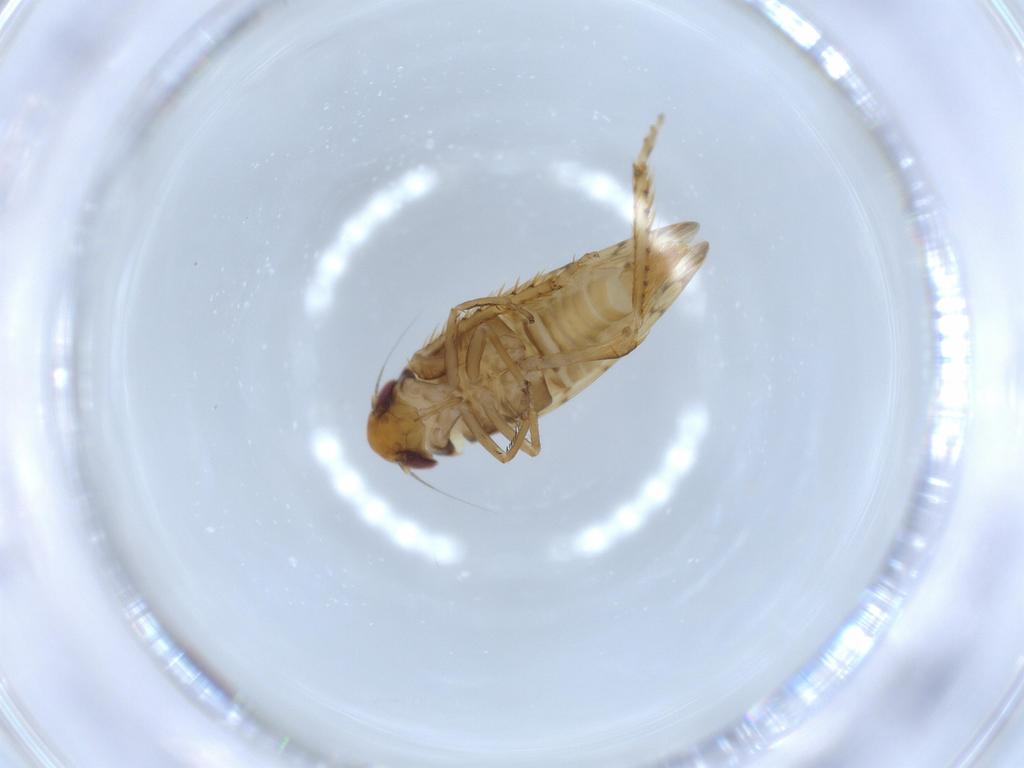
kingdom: Animalia
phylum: Arthropoda
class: Insecta
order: Hemiptera
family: Cicadellidae
